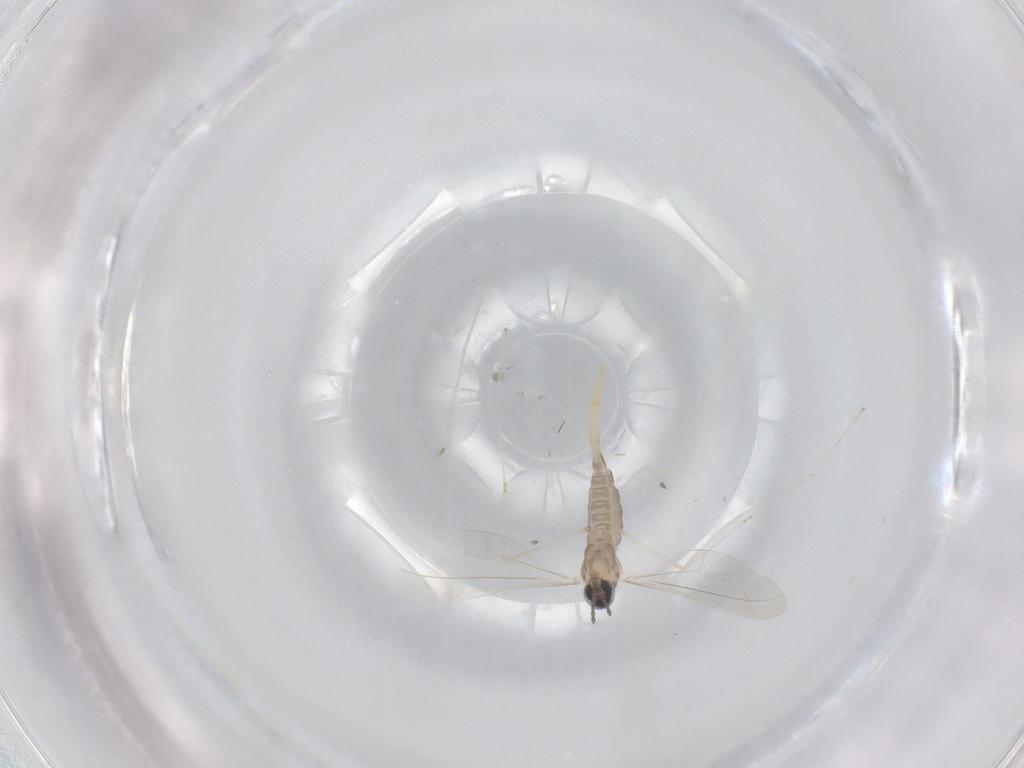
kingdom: Animalia
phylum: Arthropoda
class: Insecta
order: Diptera
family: Cecidomyiidae
